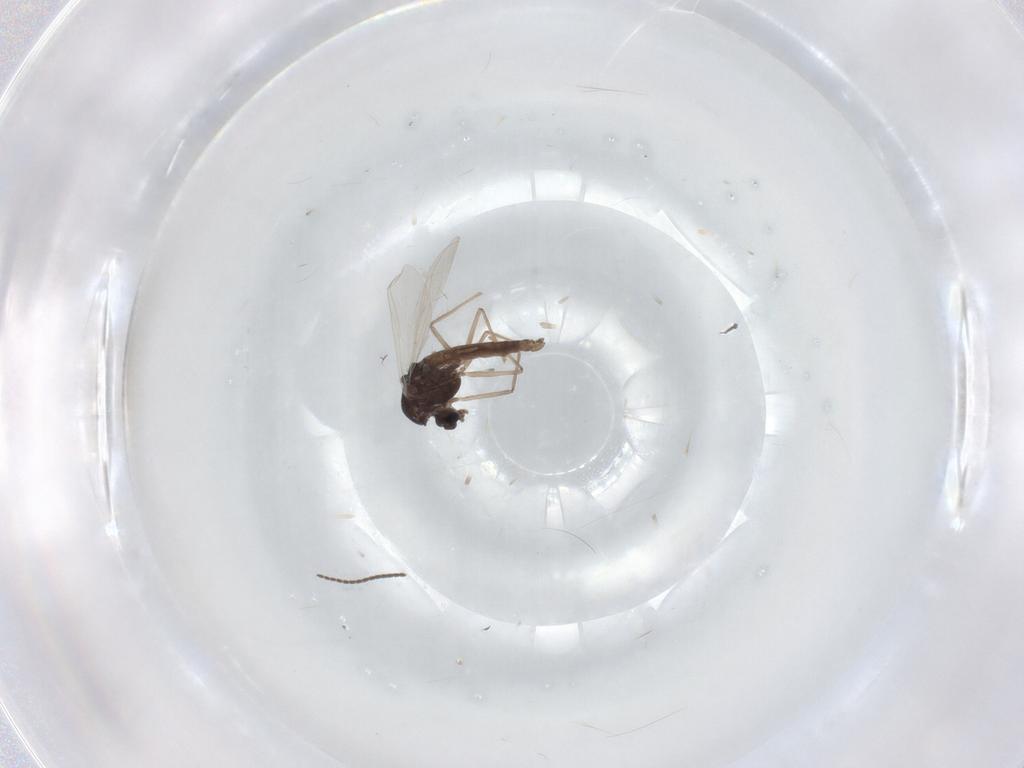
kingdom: Animalia
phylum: Arthropoda
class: Insecta
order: Diptera
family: Chironomidae
